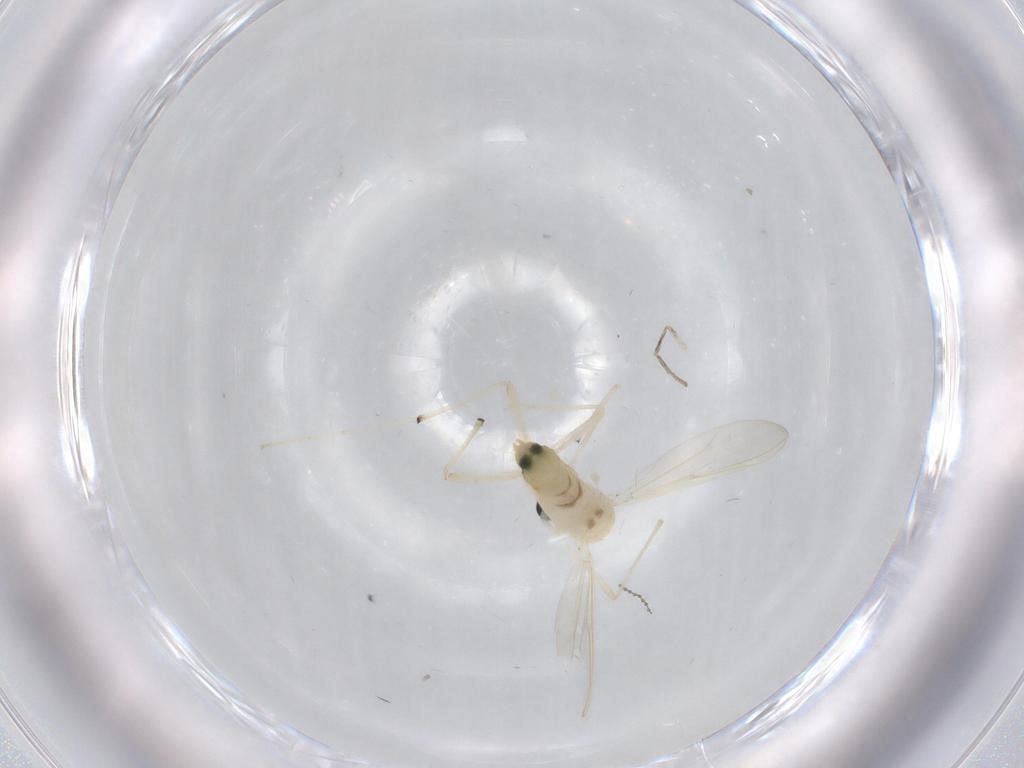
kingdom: Animalia
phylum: Arthropoda
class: Insecta
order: Diptera
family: Chironomidae
